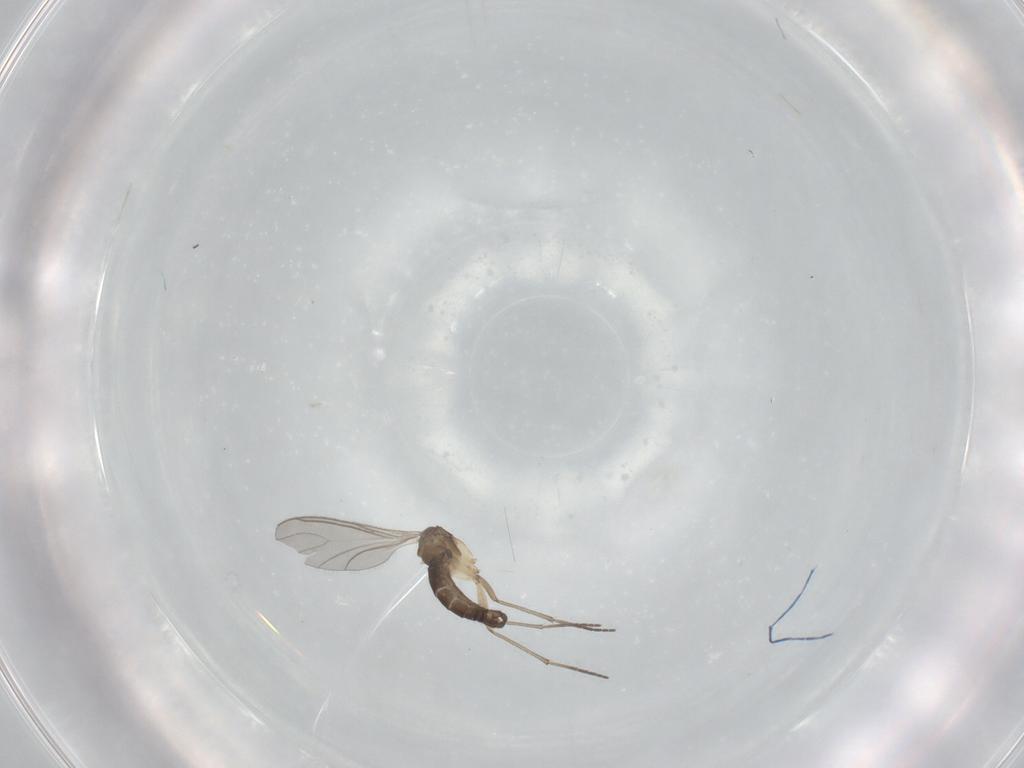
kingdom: Animalia
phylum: Arthropoda
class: Insecta
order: Diptera
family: Sciaridae
